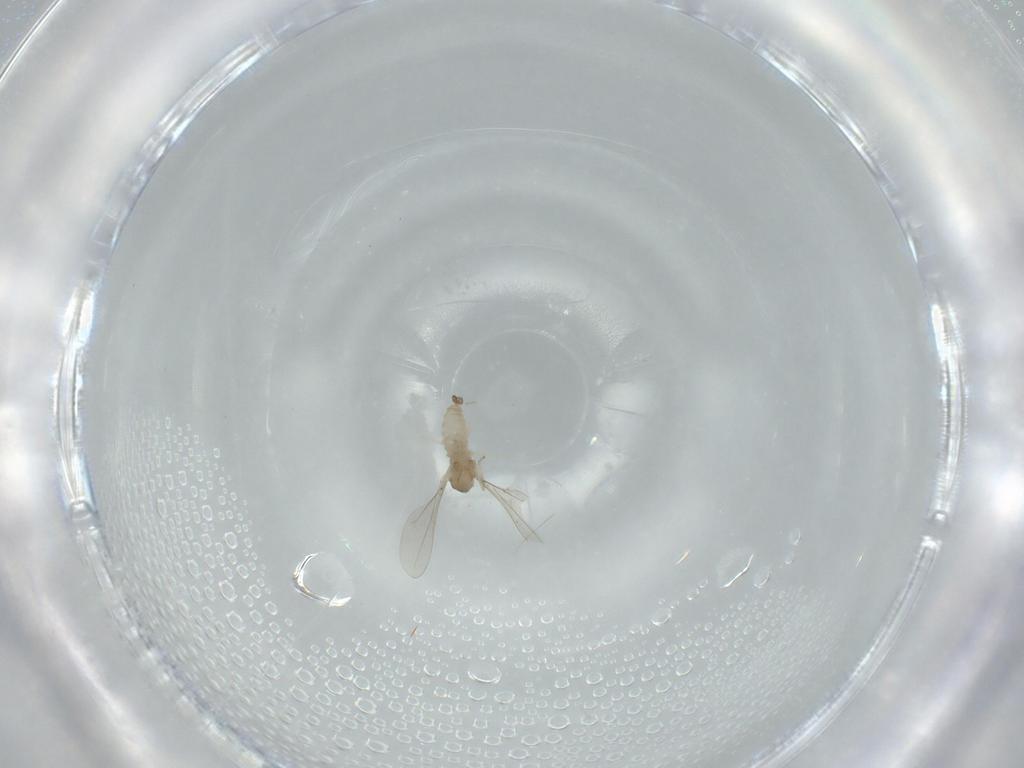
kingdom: Animalia
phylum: Arthropoda
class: Insecta
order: Diptera
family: Cecidomyiidae
